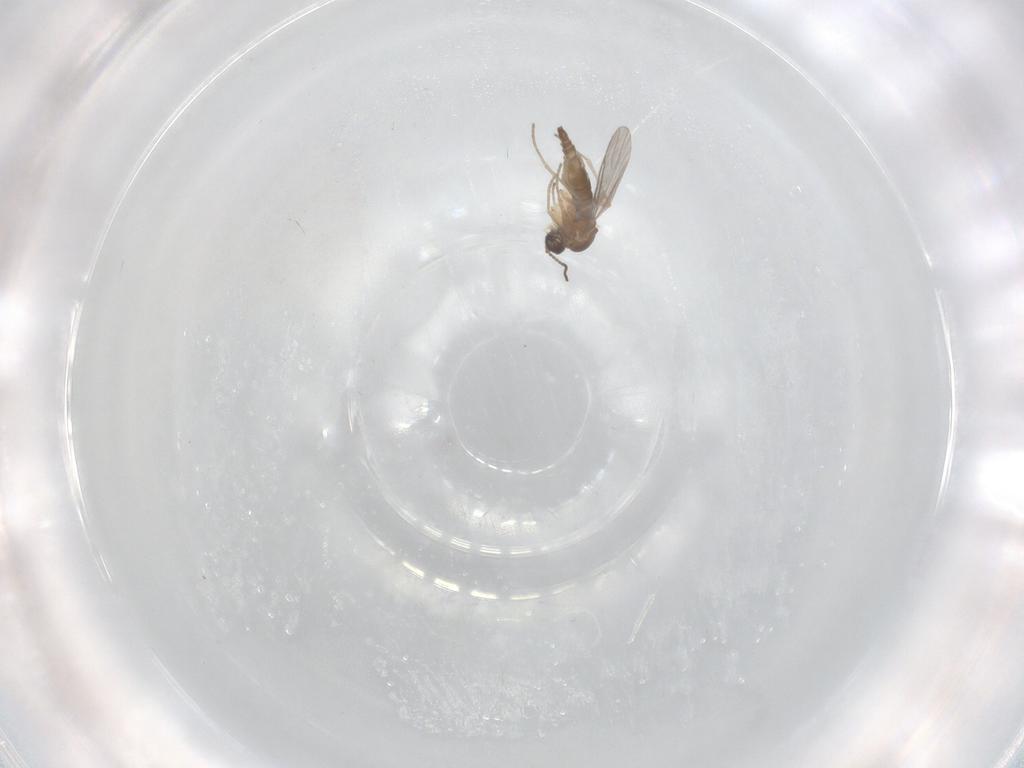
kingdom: Animalia
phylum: Arthropoda
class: Insecta
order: Diptera
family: Sciaridae
